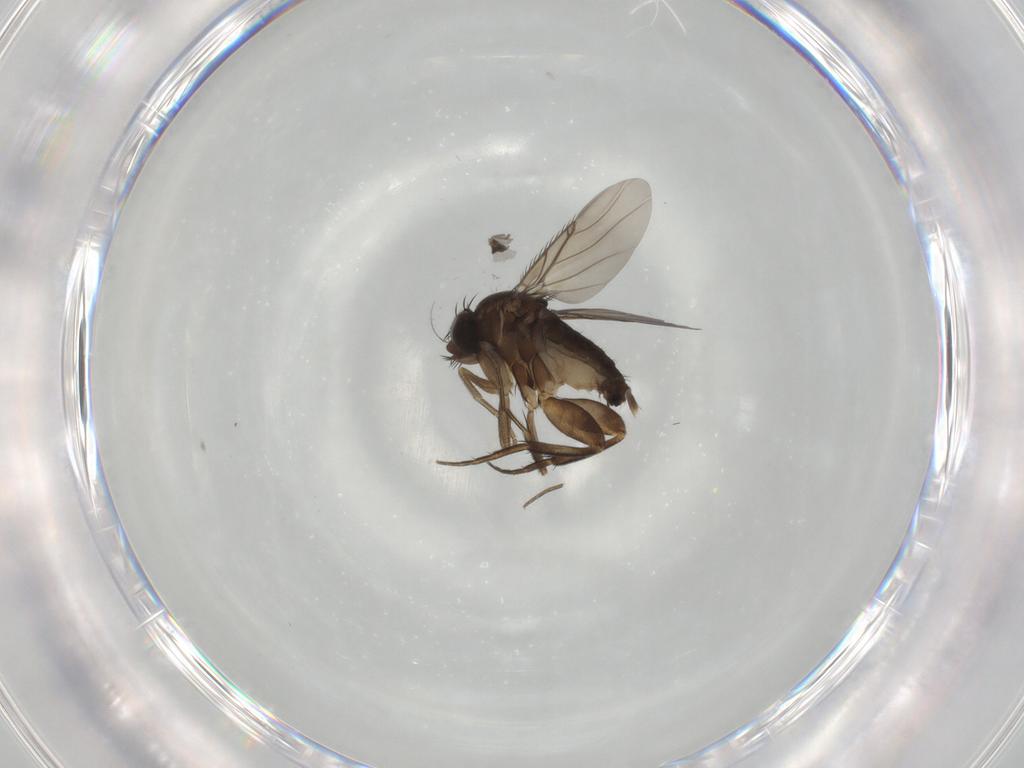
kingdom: Animalia
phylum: Arthropoda
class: Insecta
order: Diptera
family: Phoridae
